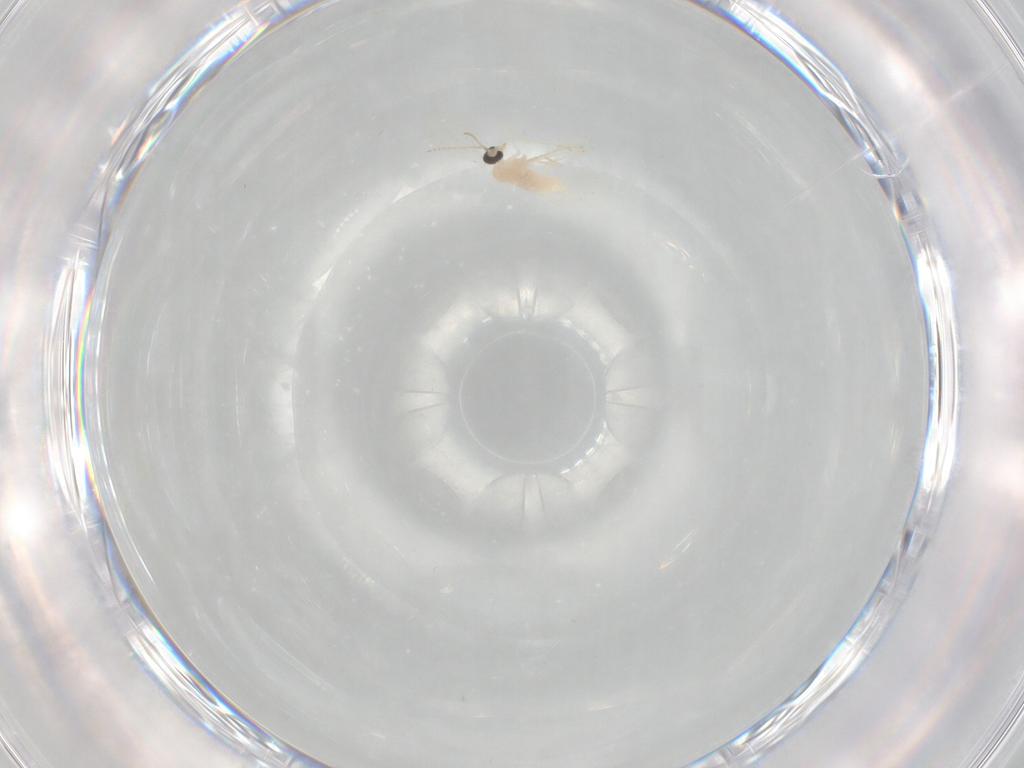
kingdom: Animalia
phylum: Arthropoda
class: Insecta
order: Diptera
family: Cecidomyiidae
